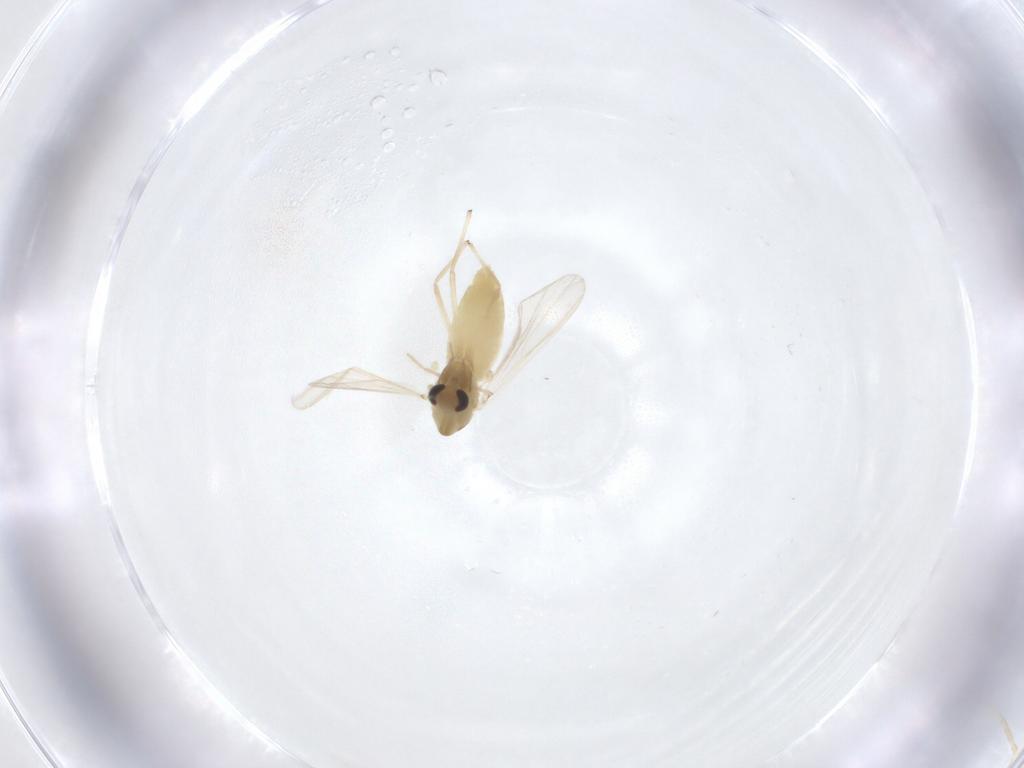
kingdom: Animalia
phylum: Arthropoda
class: Insecta
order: Diptera
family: Chironomidae
